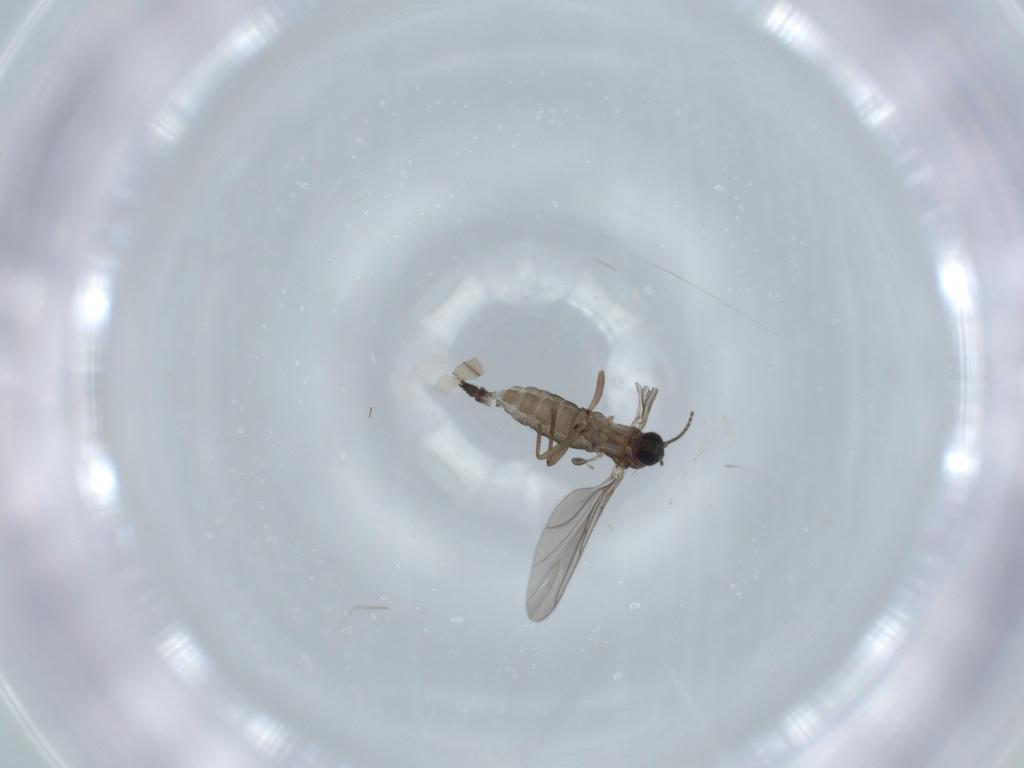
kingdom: Animalia
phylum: Arthropoda
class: Insecta
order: Diptera
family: Sciaridae
